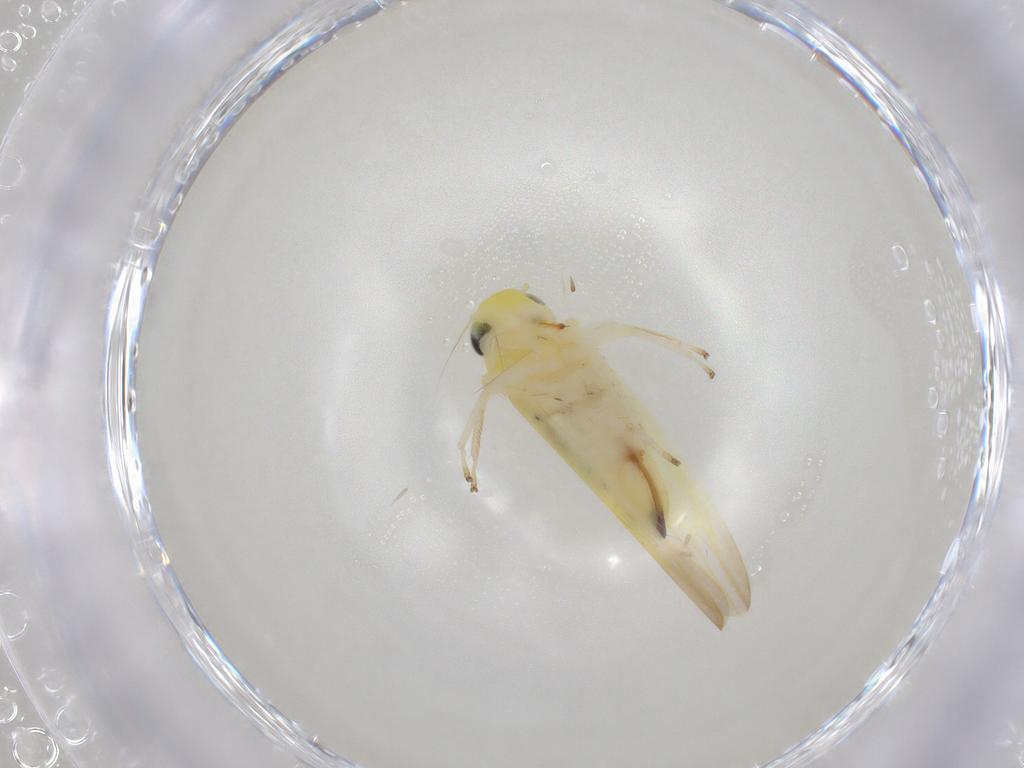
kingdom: Animalia
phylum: Arthropoda
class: Insecta
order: Hemiptera
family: Cicadellidae
